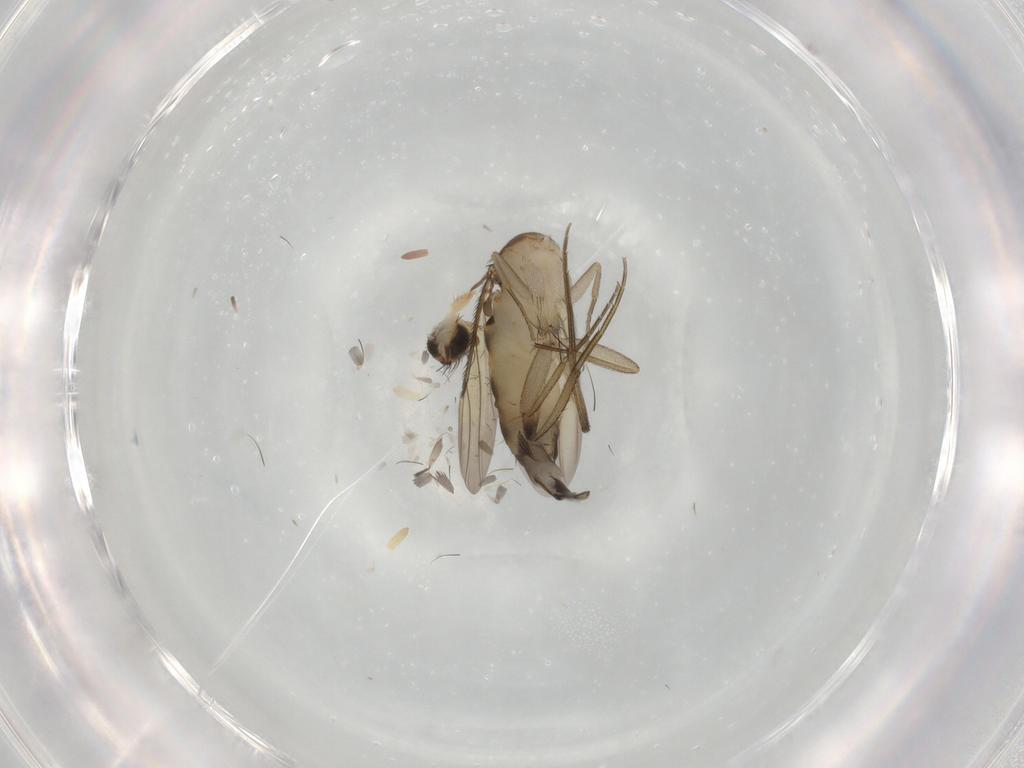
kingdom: Animalia
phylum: Arthropoda
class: Insecta
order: Diptera
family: Phoridae
